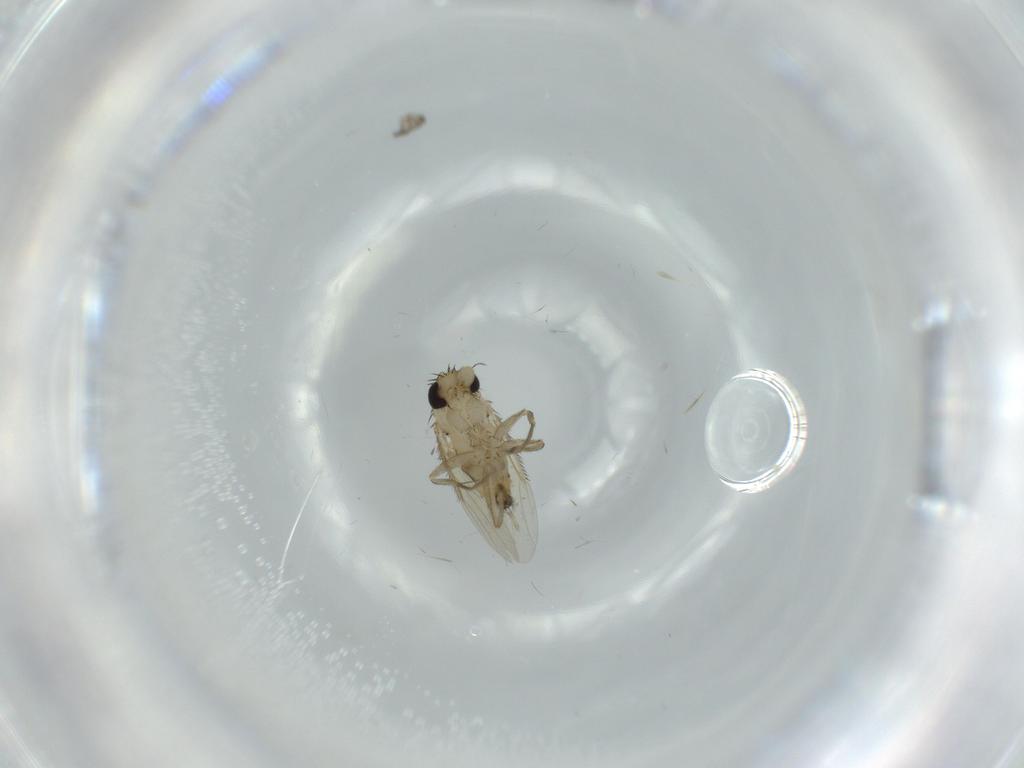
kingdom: Animalia
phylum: Arthropoda
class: Insecta
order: Diptera
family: Phoridae
